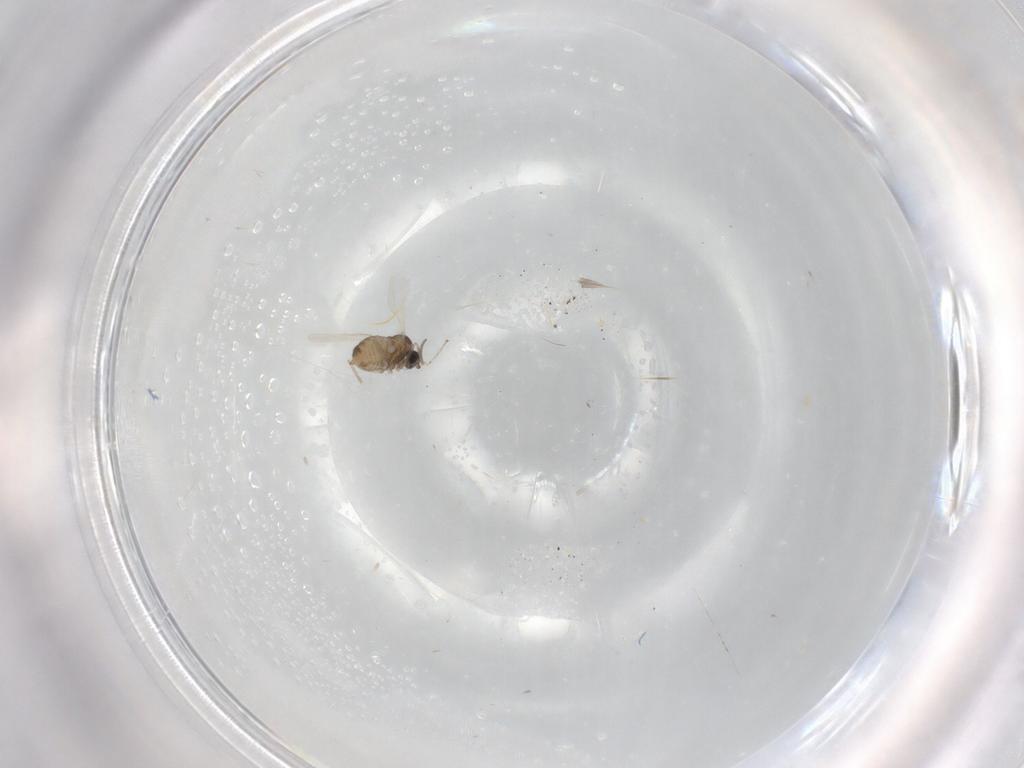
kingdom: Animalia
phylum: Arthropoda
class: Insecta
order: Diptera
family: Cecidomyiidae
